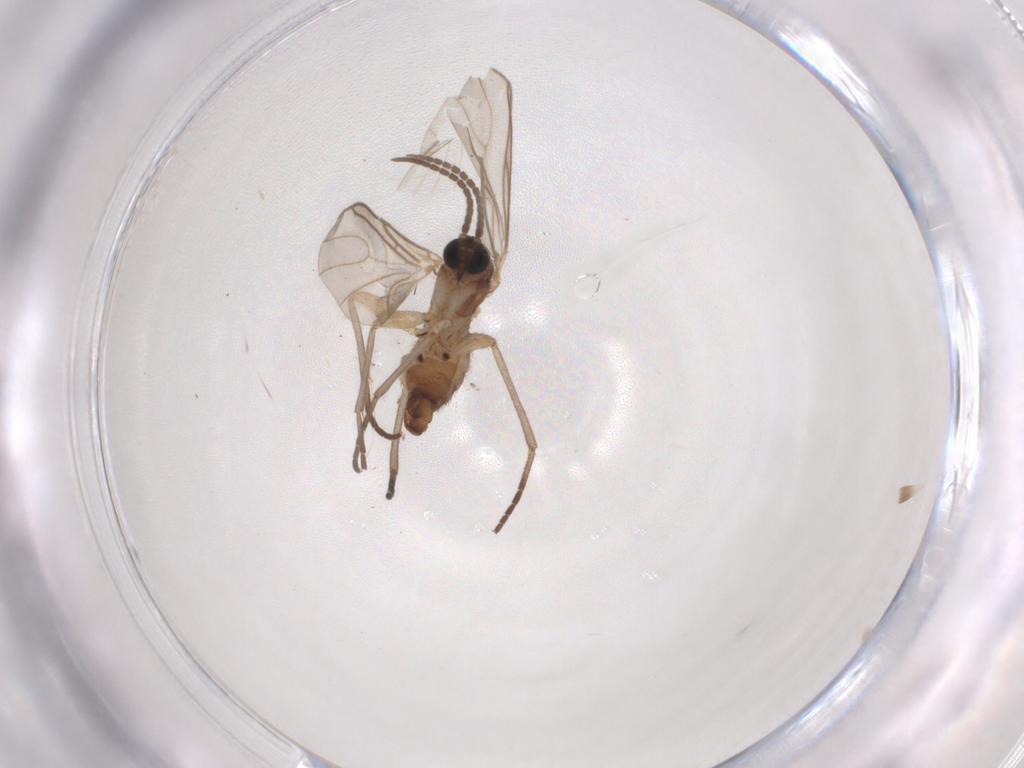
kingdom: Animalia
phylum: Arthropoda
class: Insecta
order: Diptera
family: Sciaridae
